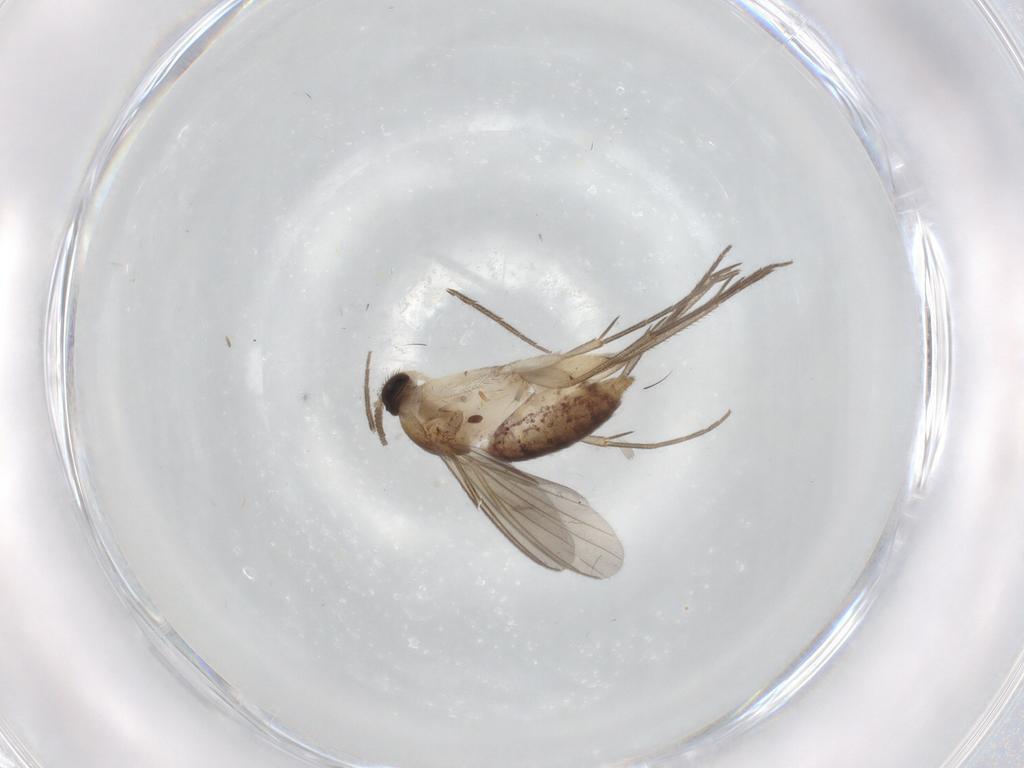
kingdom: Animalia
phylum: Arthropoda
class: Insecta
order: Diptera
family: Mycetophilidae
